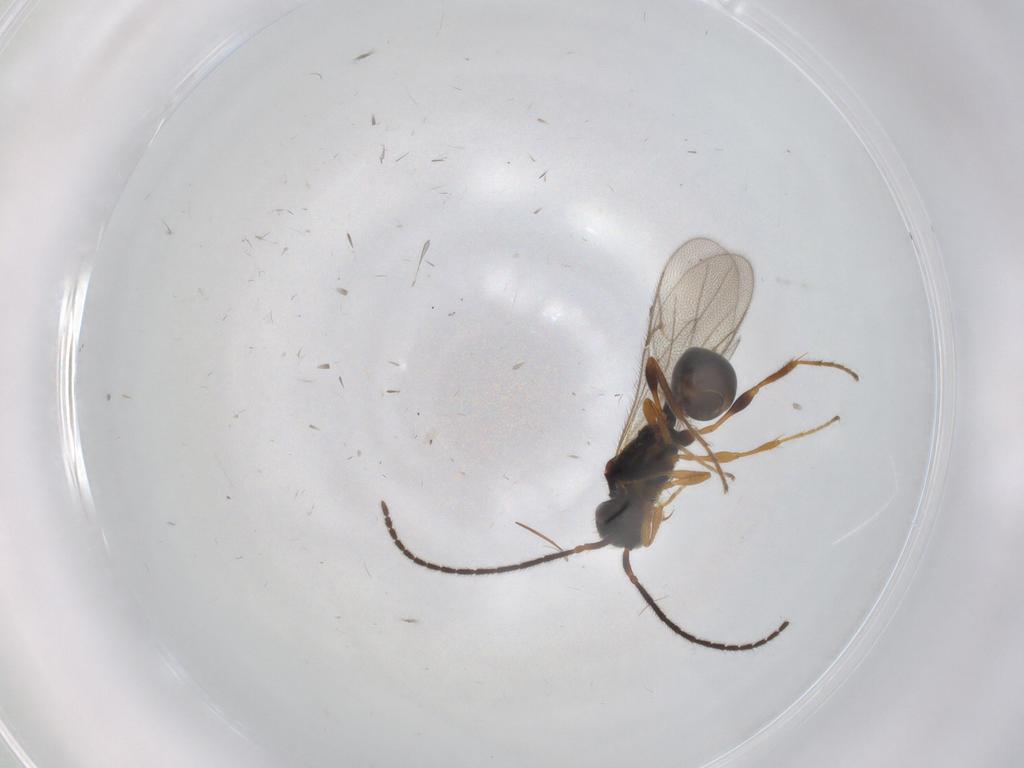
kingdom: Animalia
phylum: Arthropoda
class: Insecta
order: Hymenoptera
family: Diapriidae
